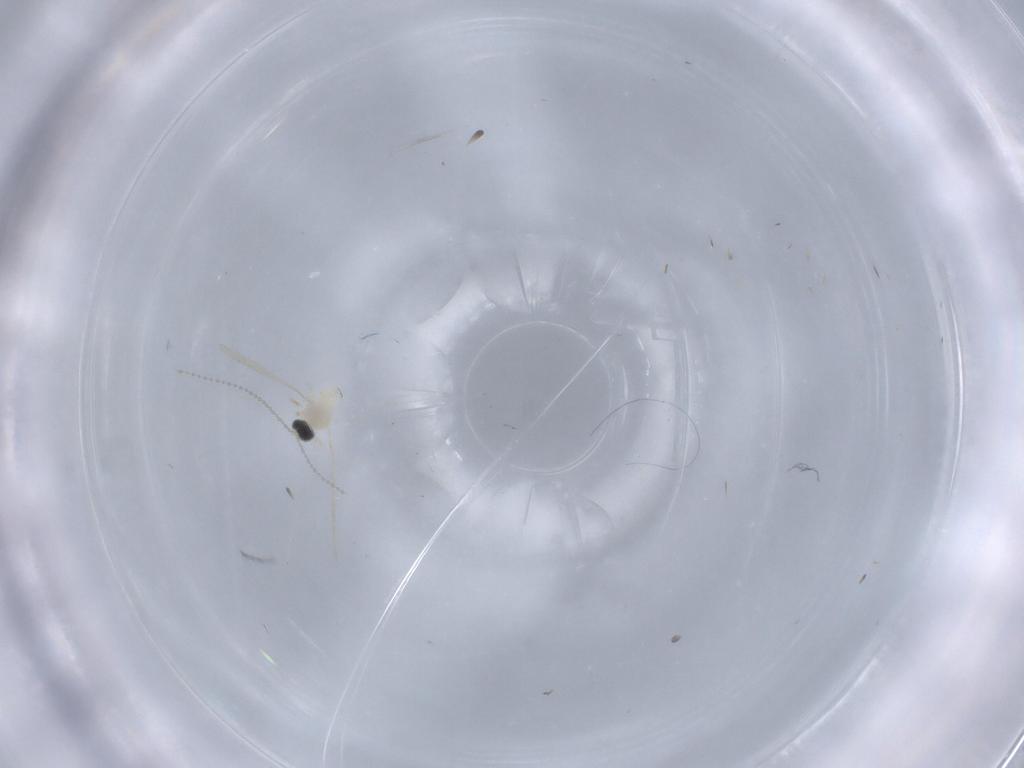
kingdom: Animalia
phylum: Arthropoda
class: Insecta
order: Diptera
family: Cecidomyiidae
